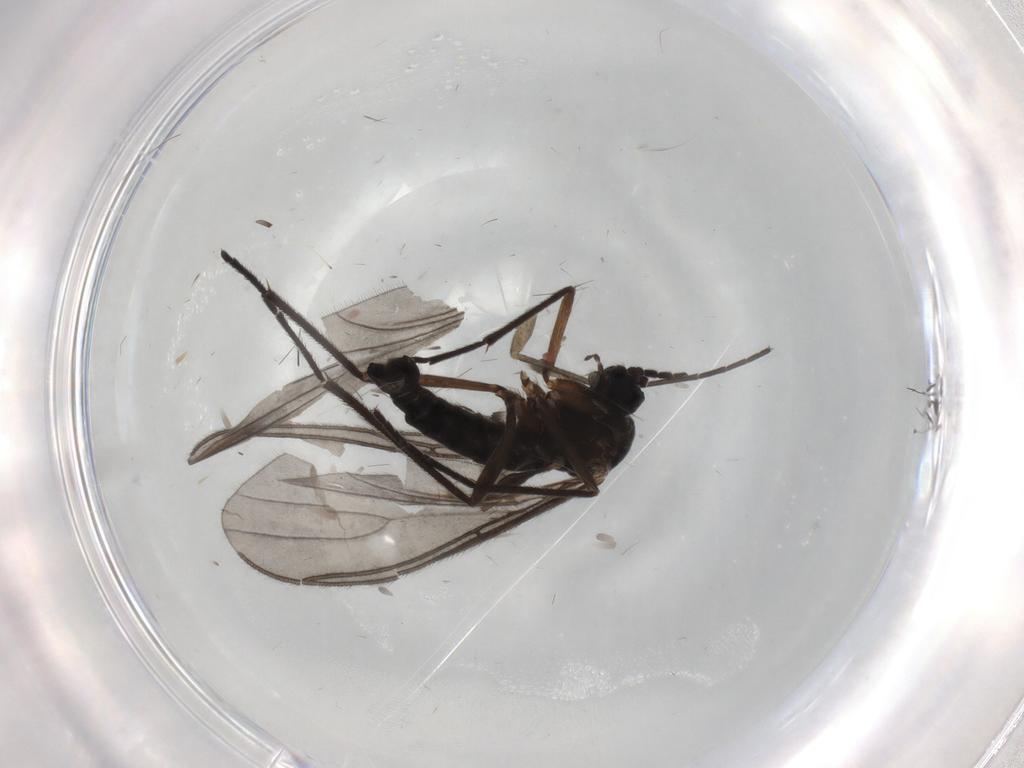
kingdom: Animalia
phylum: Arthropoda
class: Insecta
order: Diptera
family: Sciaridae
